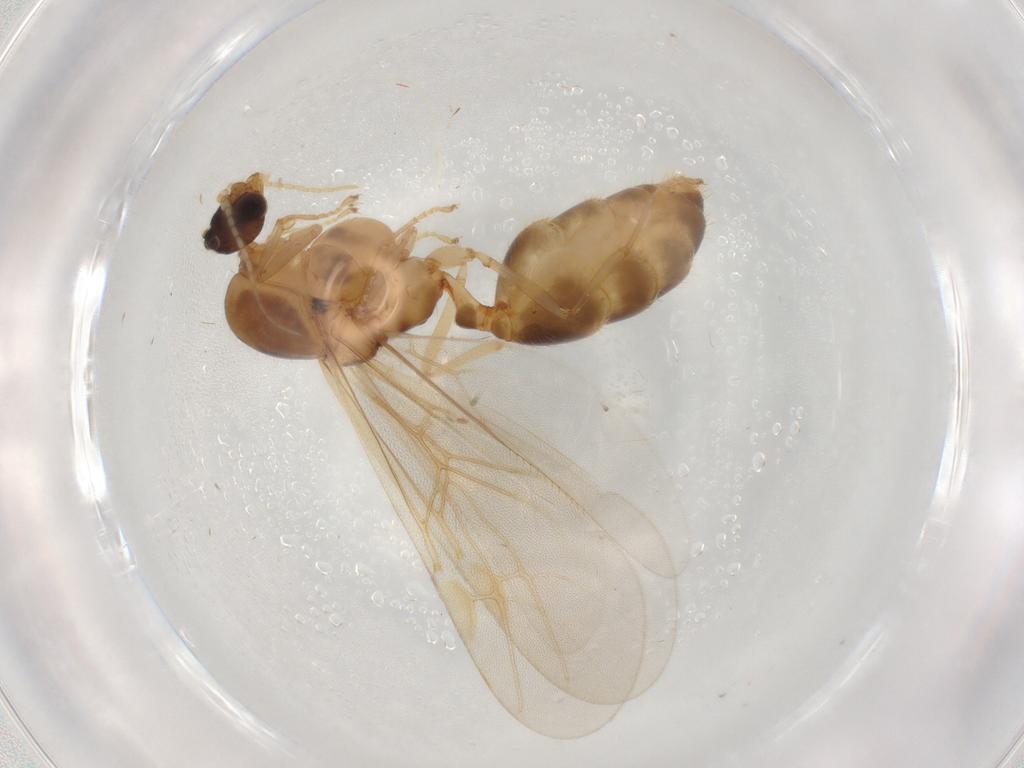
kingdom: Animalia
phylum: Arthropoda
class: Insecta
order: Hymenoptera
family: Formicidae
